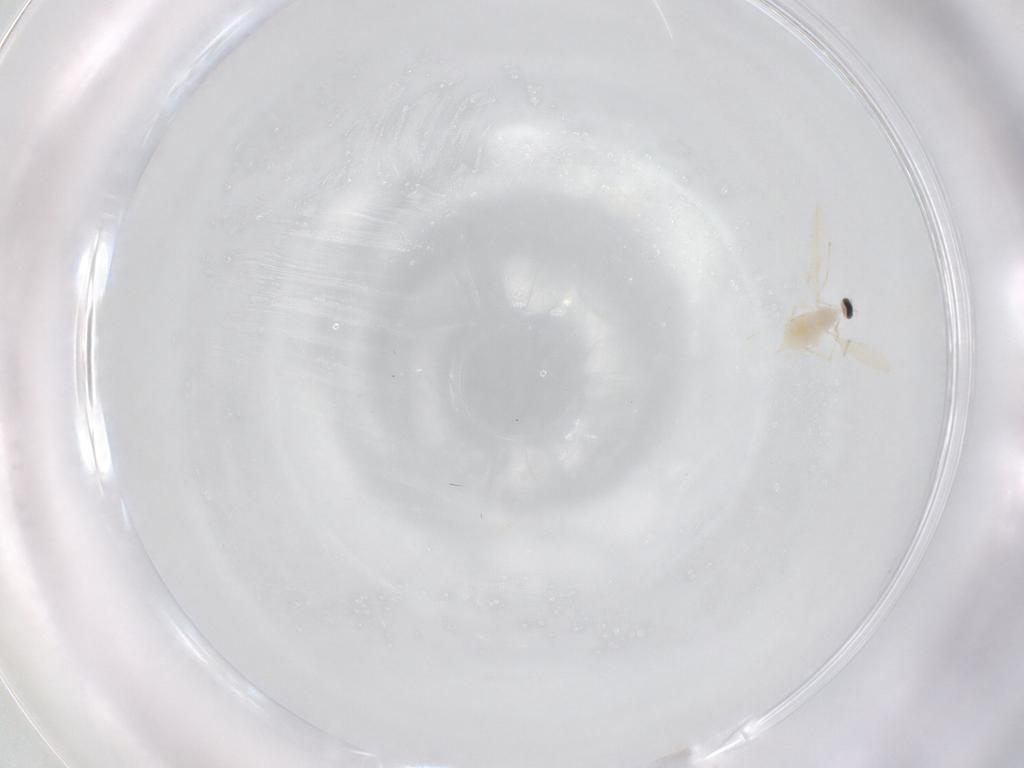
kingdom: Animalia
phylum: Arthropoda
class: Insecta
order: Diptera
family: Cecidomyiidae
